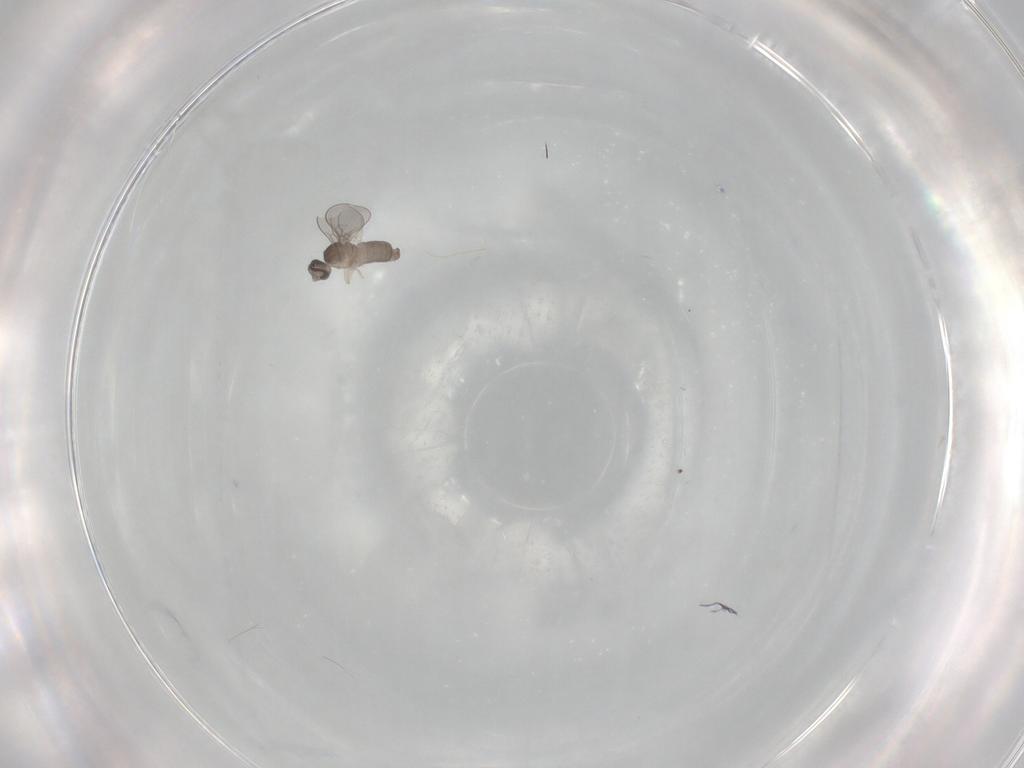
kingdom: Animalia
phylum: Arthropoda
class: Insecta
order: Diptera
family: Cecidomyiidae
